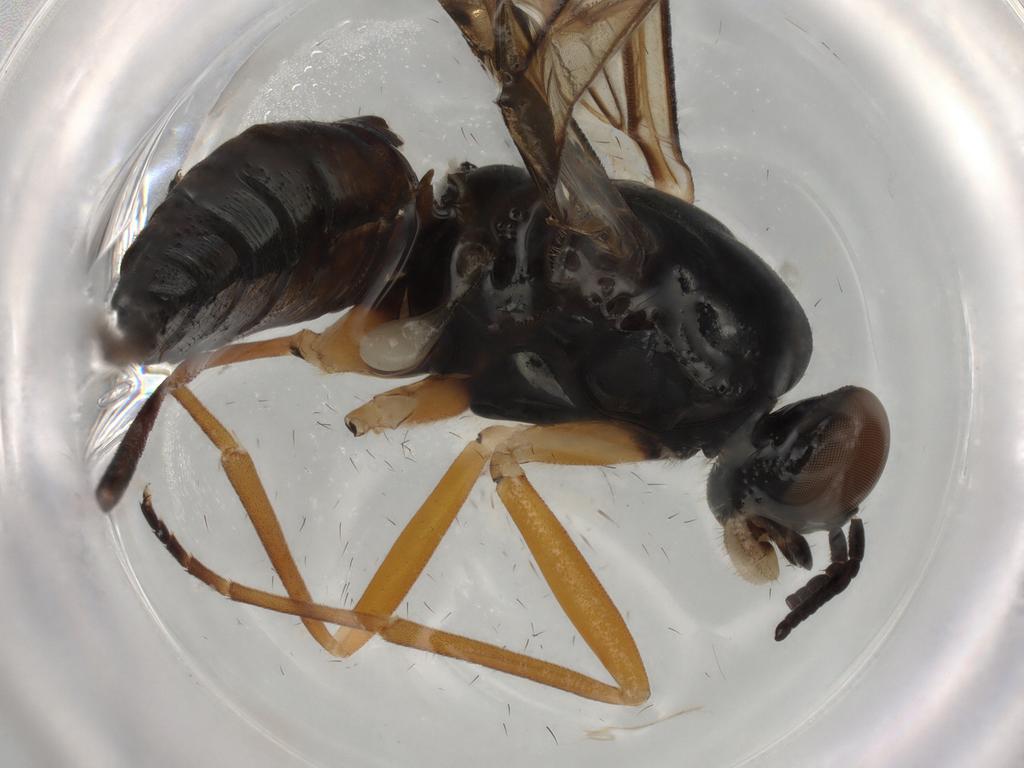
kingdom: Animalia
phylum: Arthropoda
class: Insecta
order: Diptera
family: Xylophagidae
